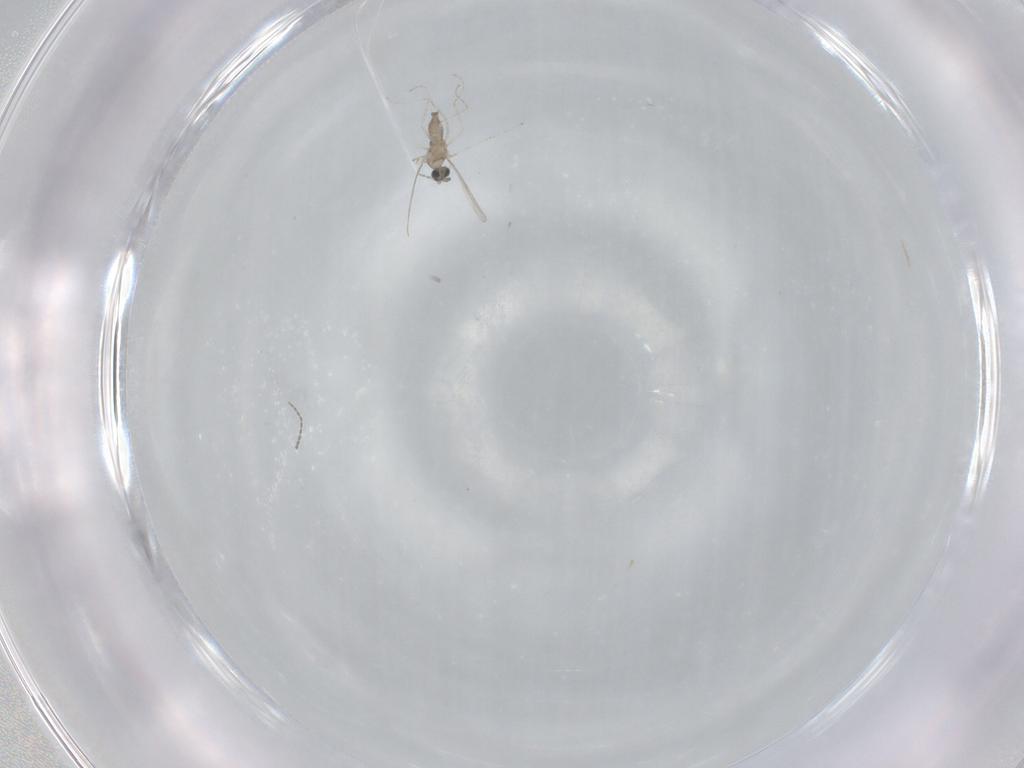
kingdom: Animalia
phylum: Arthropoda
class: Insecta
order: Diptera
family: Cecidomyiidae
